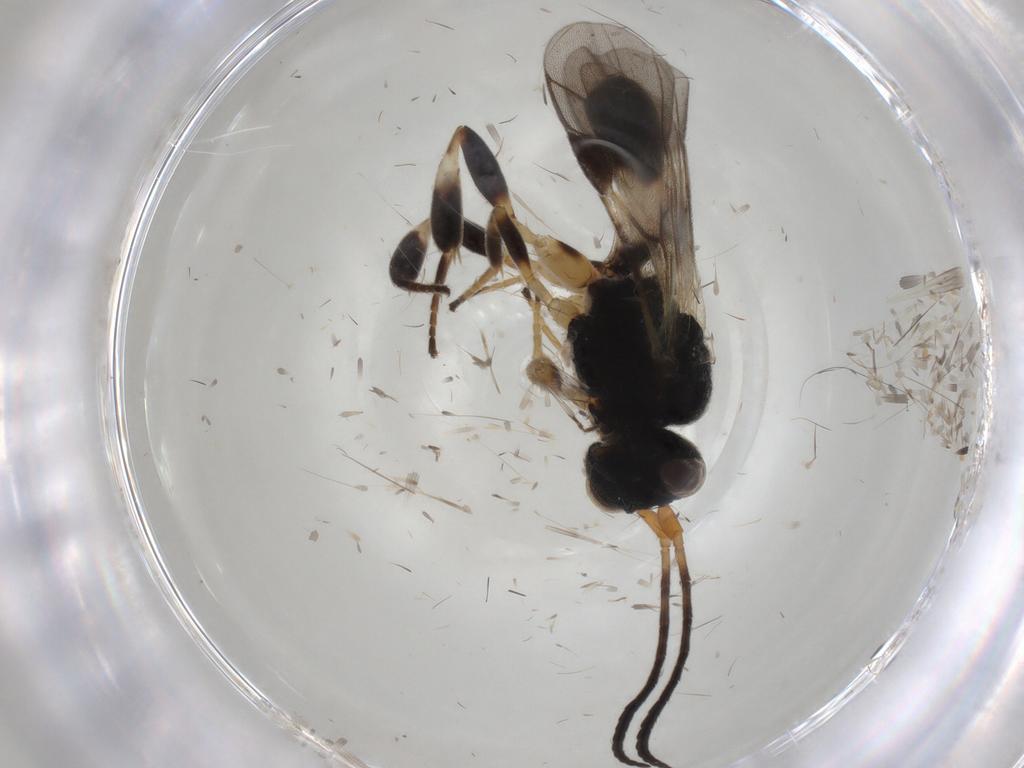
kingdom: Animalia
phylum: Arthropoda
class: Insecta
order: Hymenoptera
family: Braconidae
